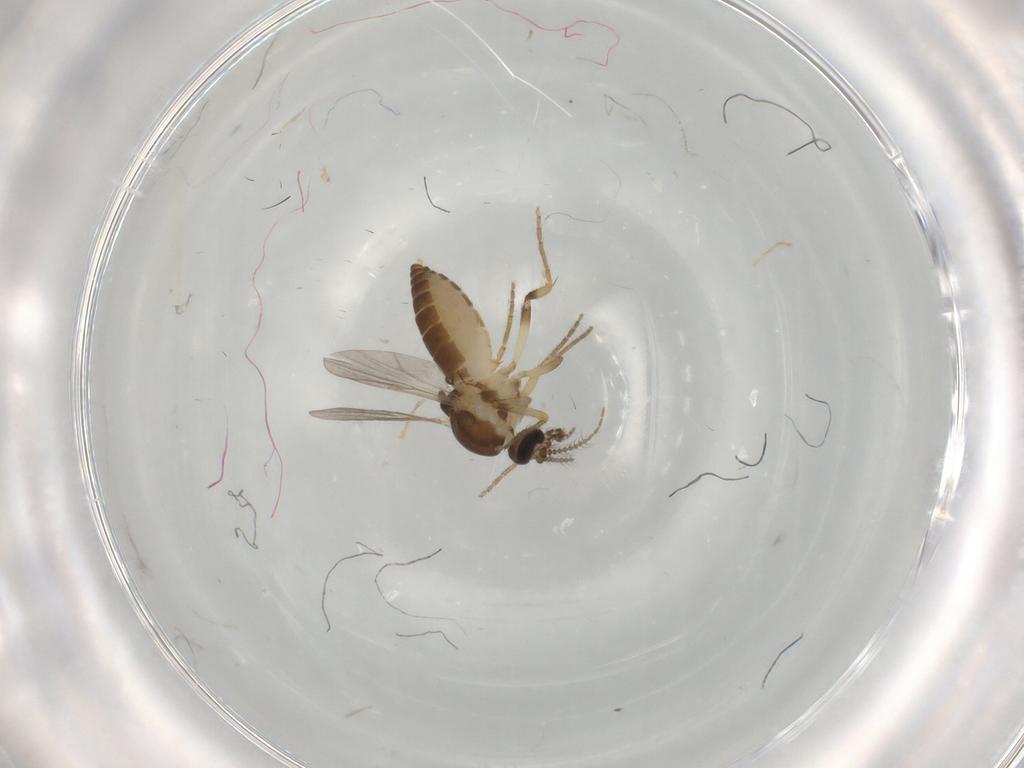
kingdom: Animalia
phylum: Arthropoda
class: Insecta
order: Diptera
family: Ceratopogonidae
